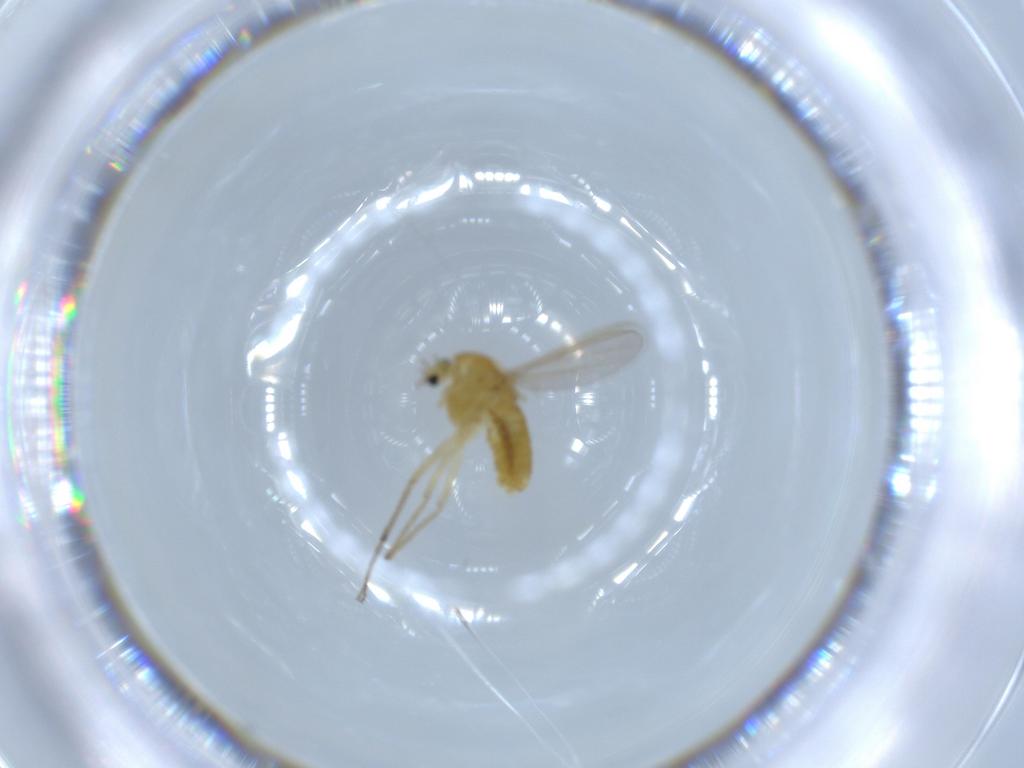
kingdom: Animalia
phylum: Arthropoda
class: Insecta
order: Diptera
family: Chironomidae
